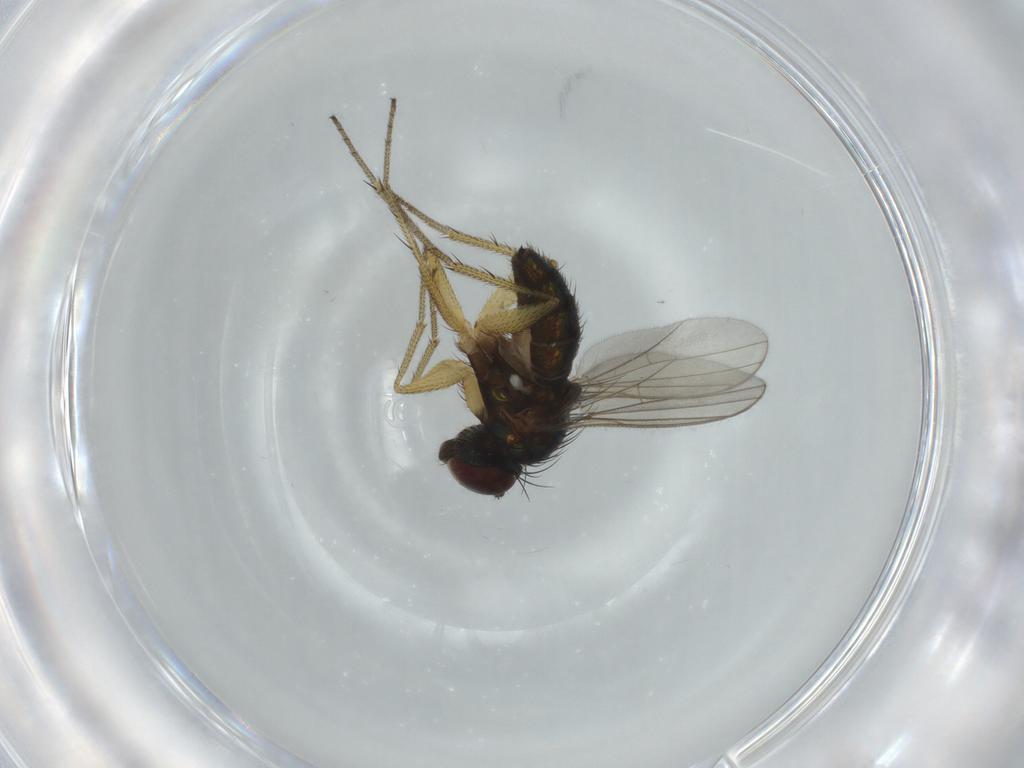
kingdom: Animalia
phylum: Arthropoda
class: Insecta
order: Diptera
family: Dolichopodidae
